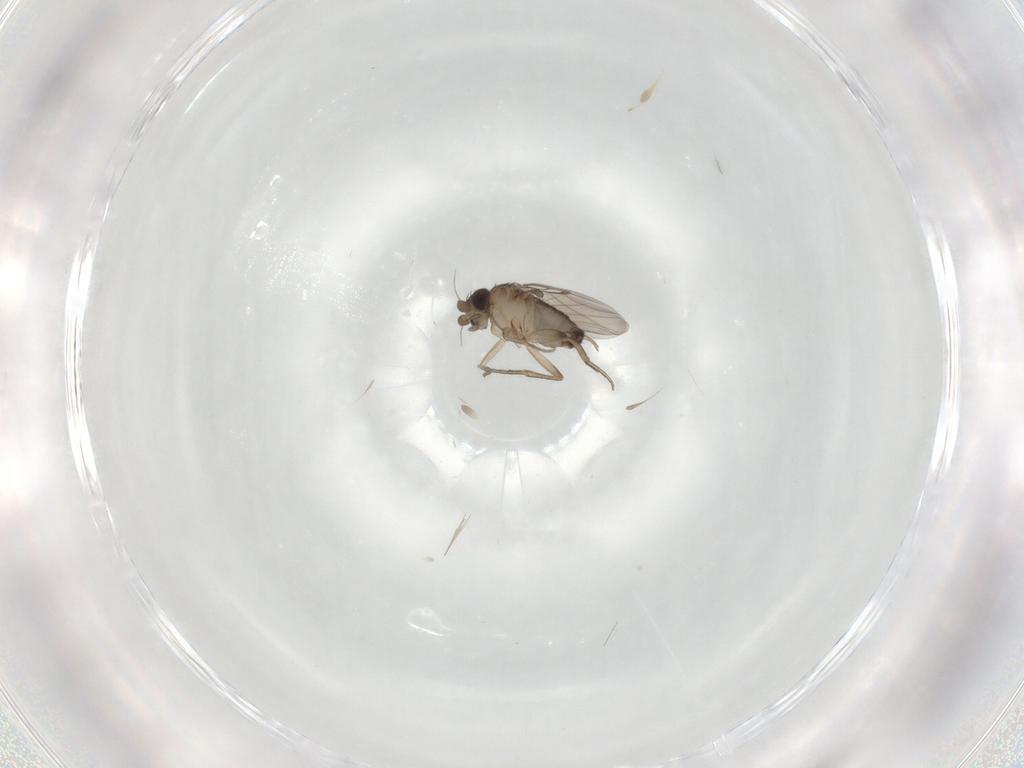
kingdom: Animalia
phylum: Arthropoda
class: Insecta
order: Diptera
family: Phoridae
